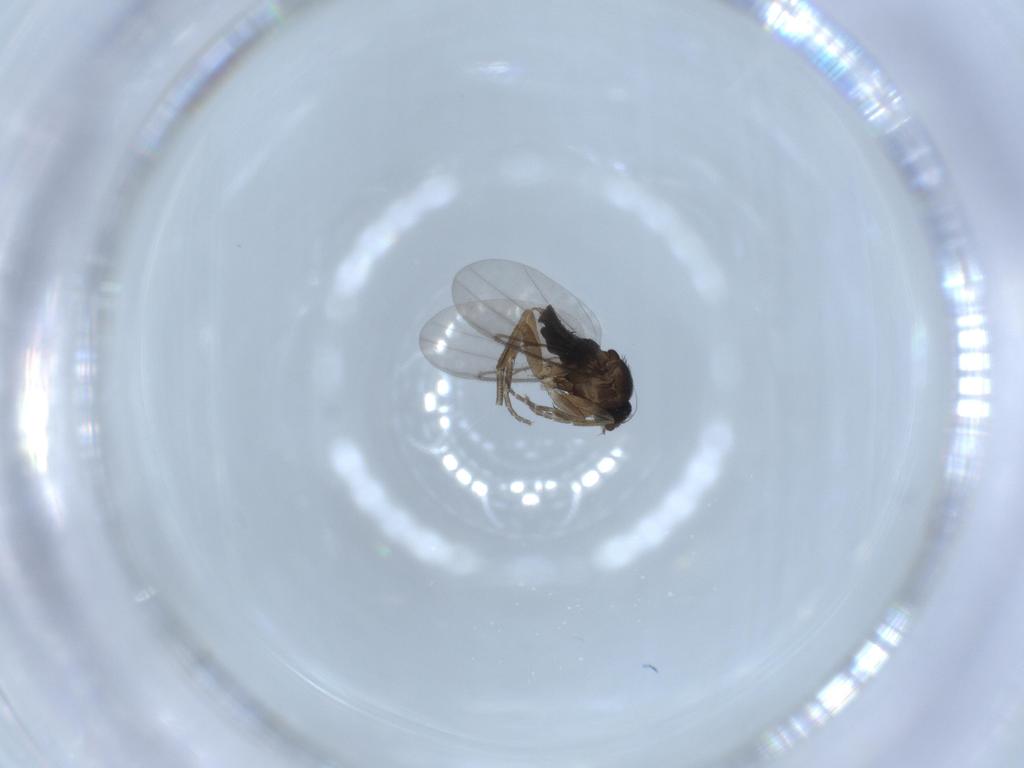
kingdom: Animalia
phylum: Arthropoda
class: Insecta
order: Diptera
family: Phoridae
